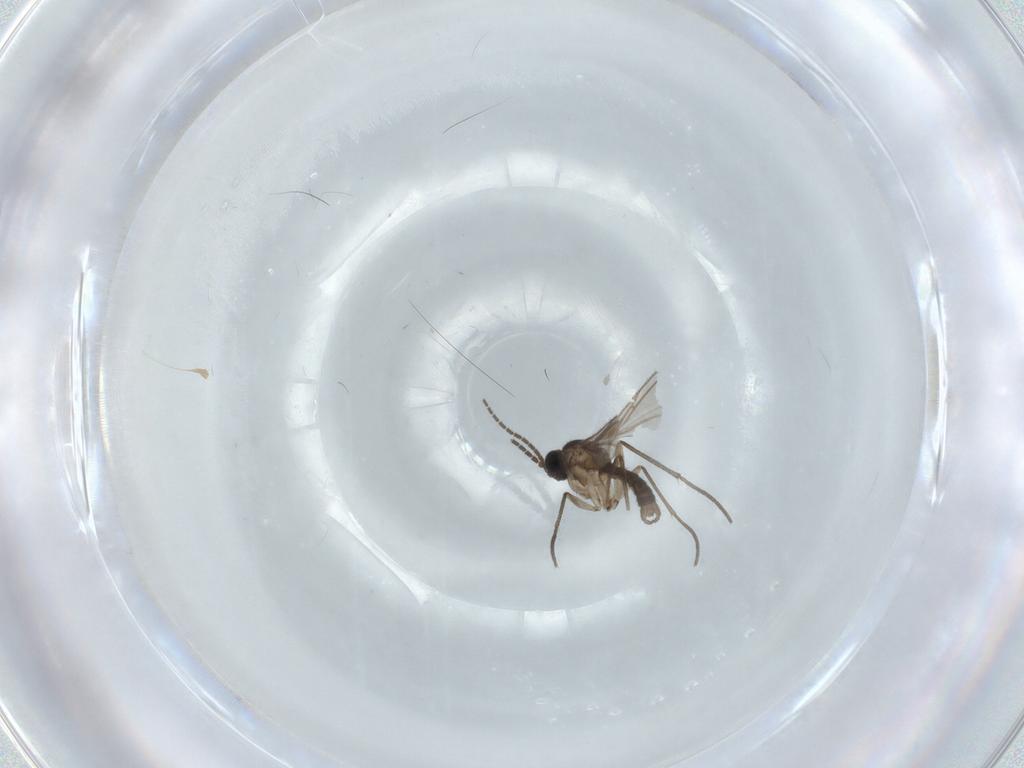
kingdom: Animalia
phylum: Arthropoda
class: Insecta
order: Diptera
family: Sciaridae
